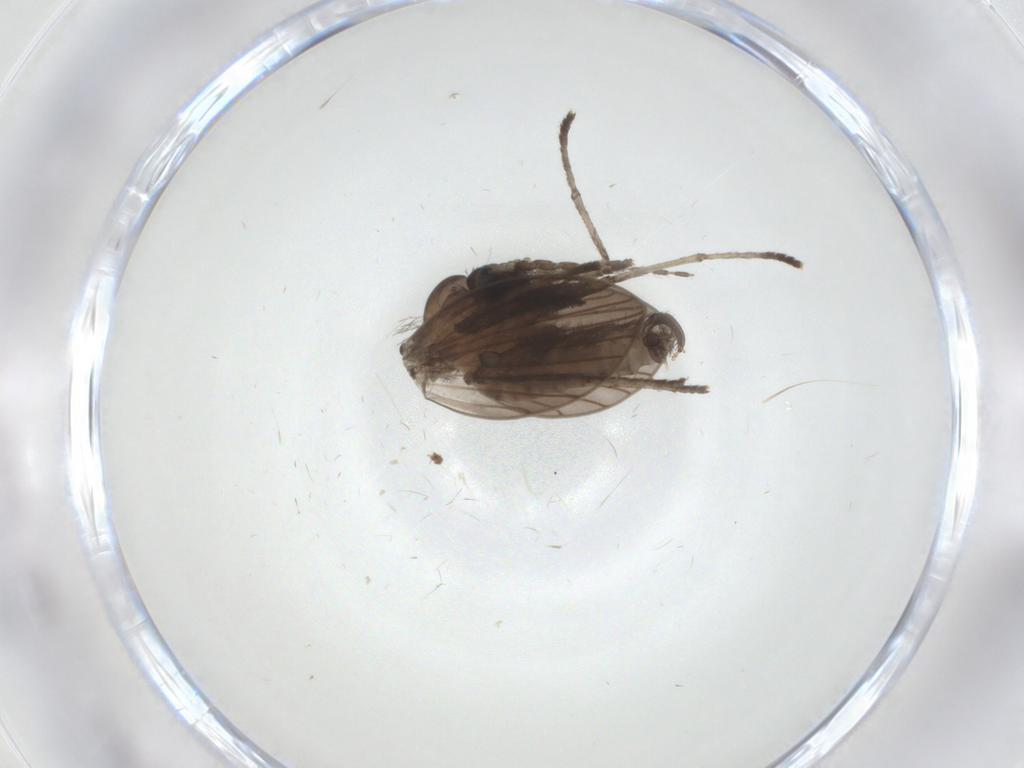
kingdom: Animalia
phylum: Arthropoda
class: Insecta
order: Diptera
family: Psychodidae
